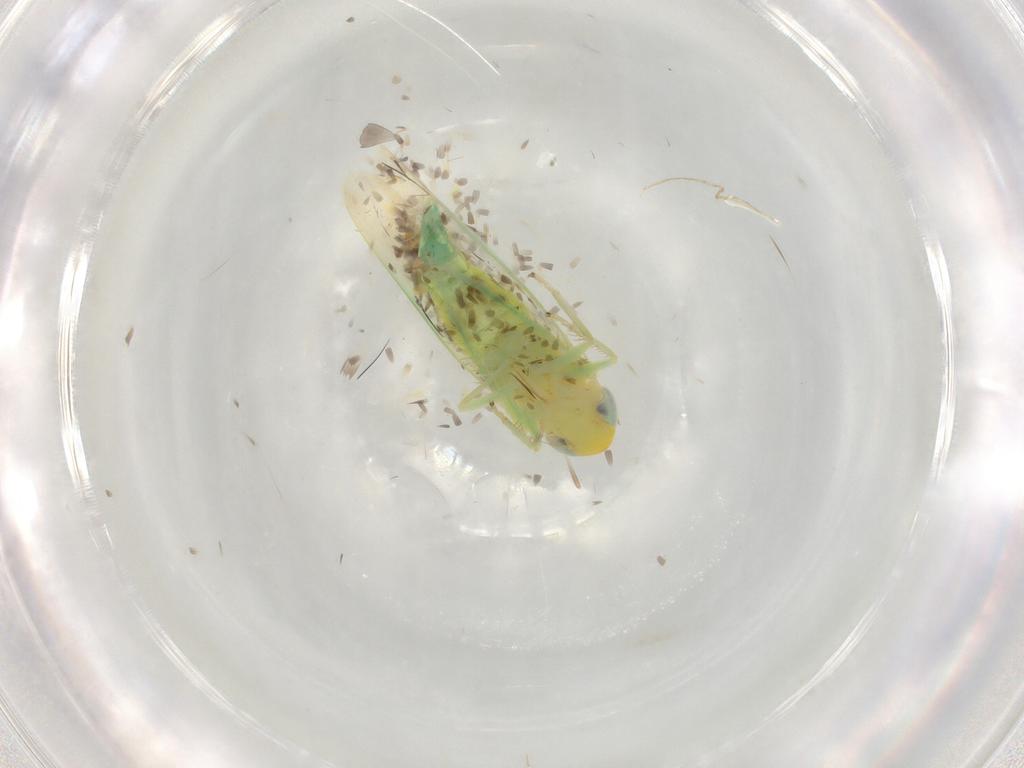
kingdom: Animalia
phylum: Arthropoda
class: Insecta
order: Hemiptera
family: Cicadellidae
